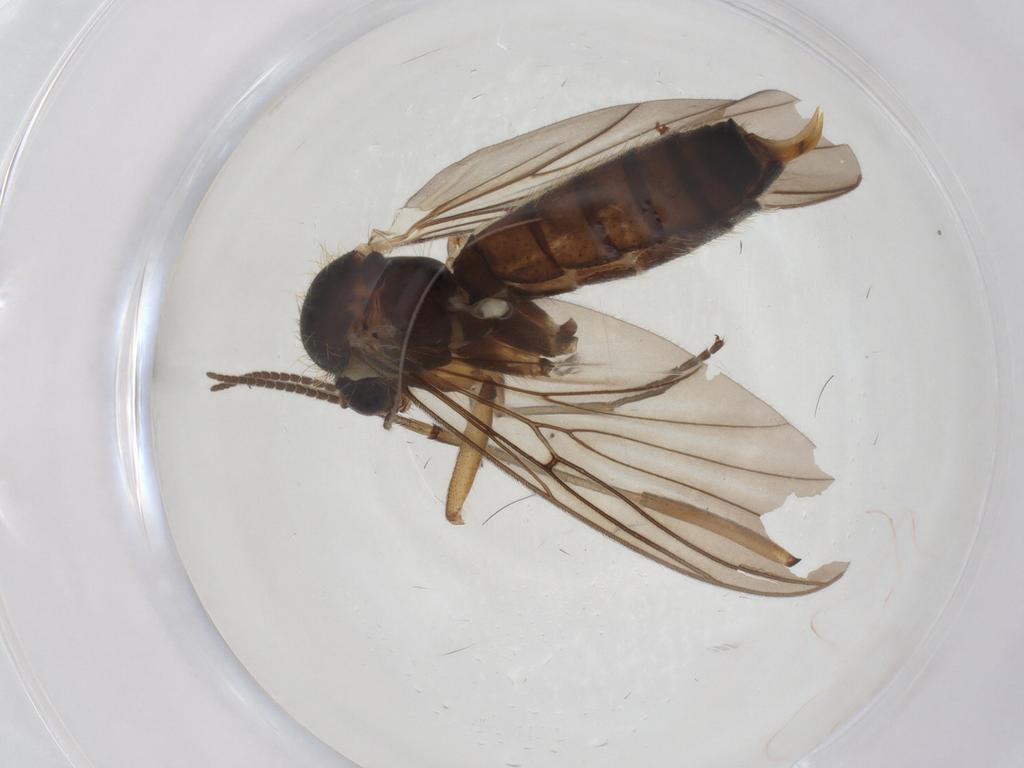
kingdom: Animalia
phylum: Arthropoda
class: Insecta
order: Diptera
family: Mycetophilidae
